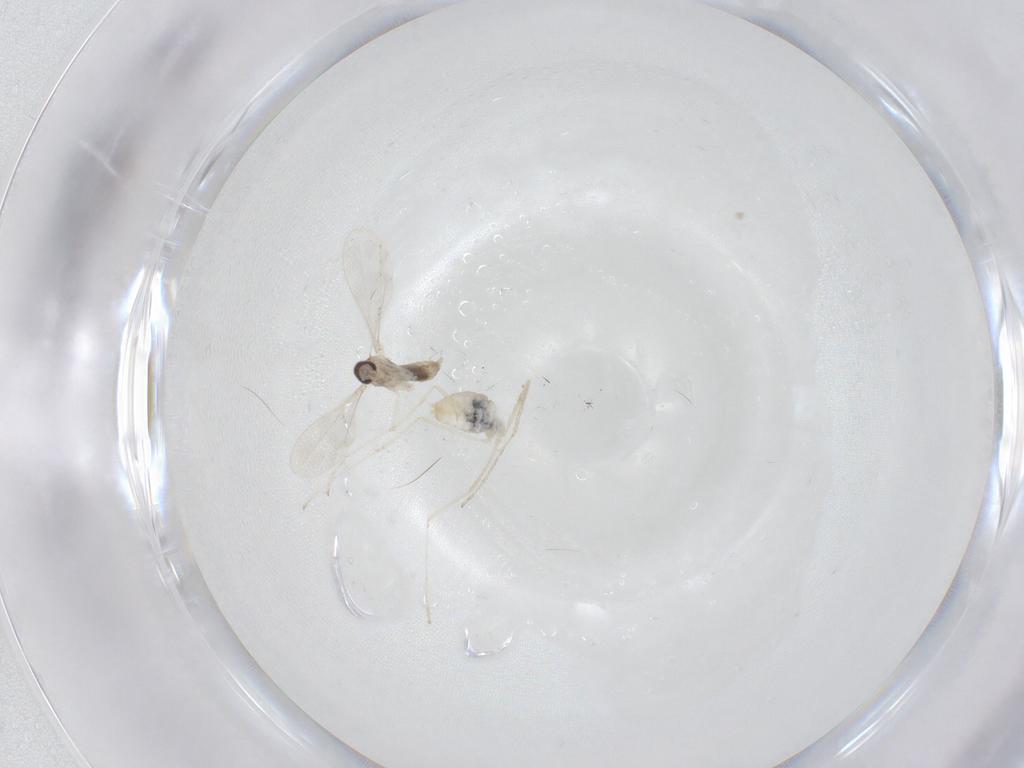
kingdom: Animalia
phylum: Arthropoda
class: Insecta
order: Diptera
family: Cecidomyiidae
